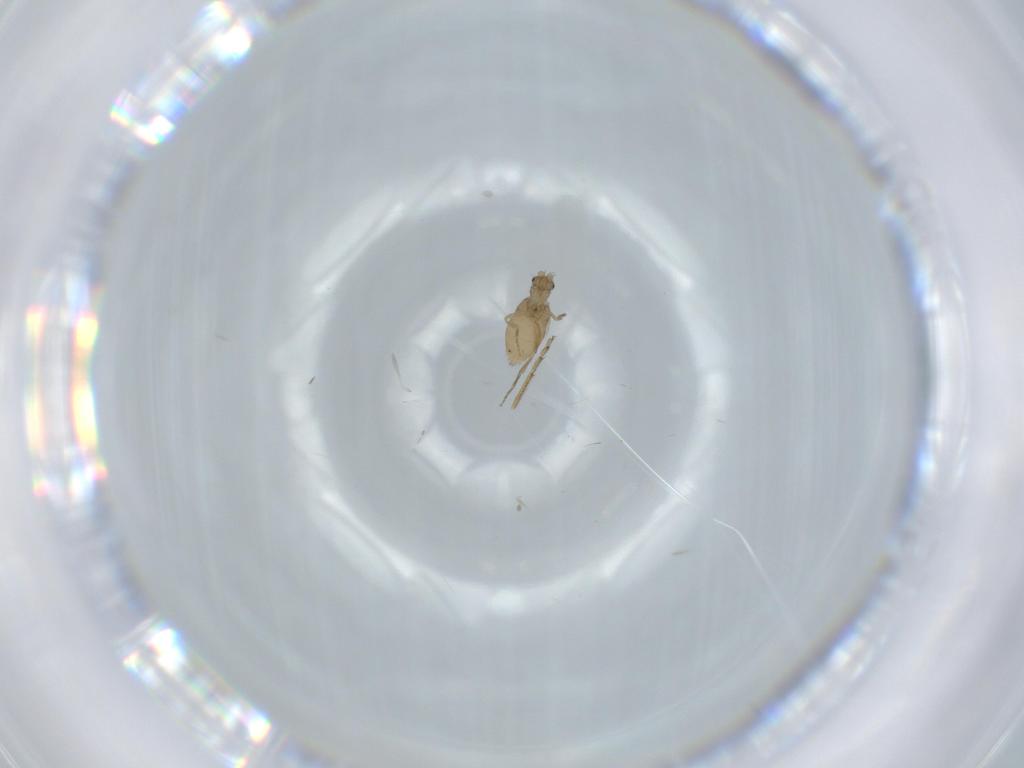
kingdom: Animalia
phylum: Arthropoda
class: Insecta
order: Diptera
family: Phoridae
